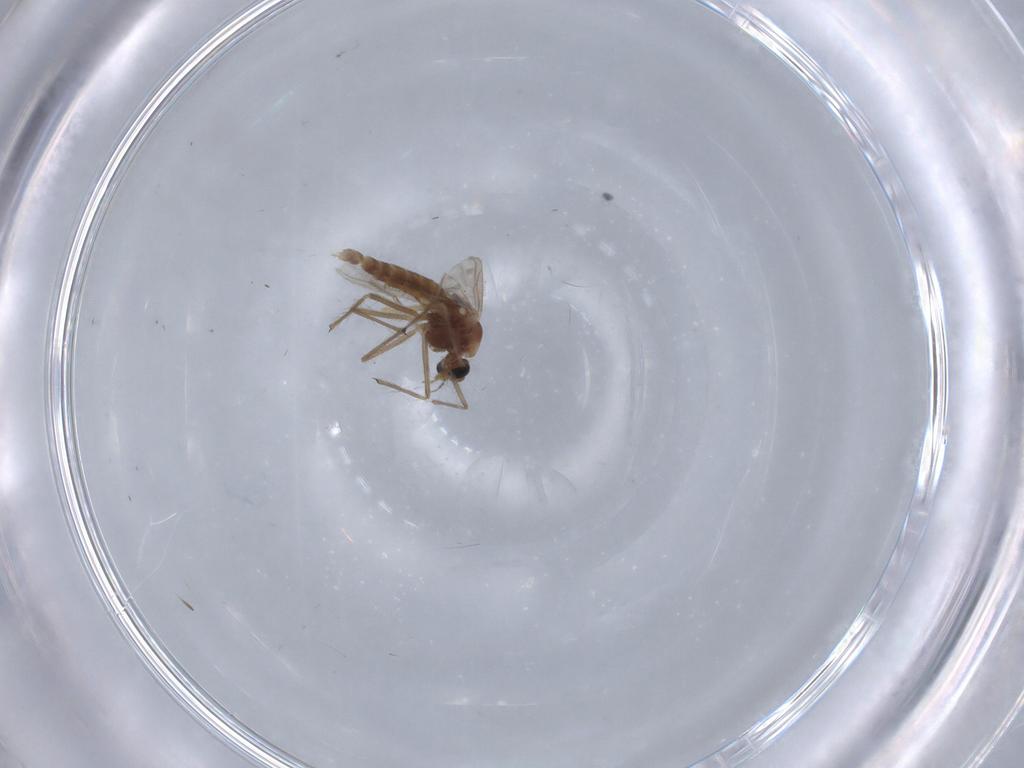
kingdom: Animalia
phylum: Arthropoda
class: Insecta
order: Diptera
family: Chironomidae
